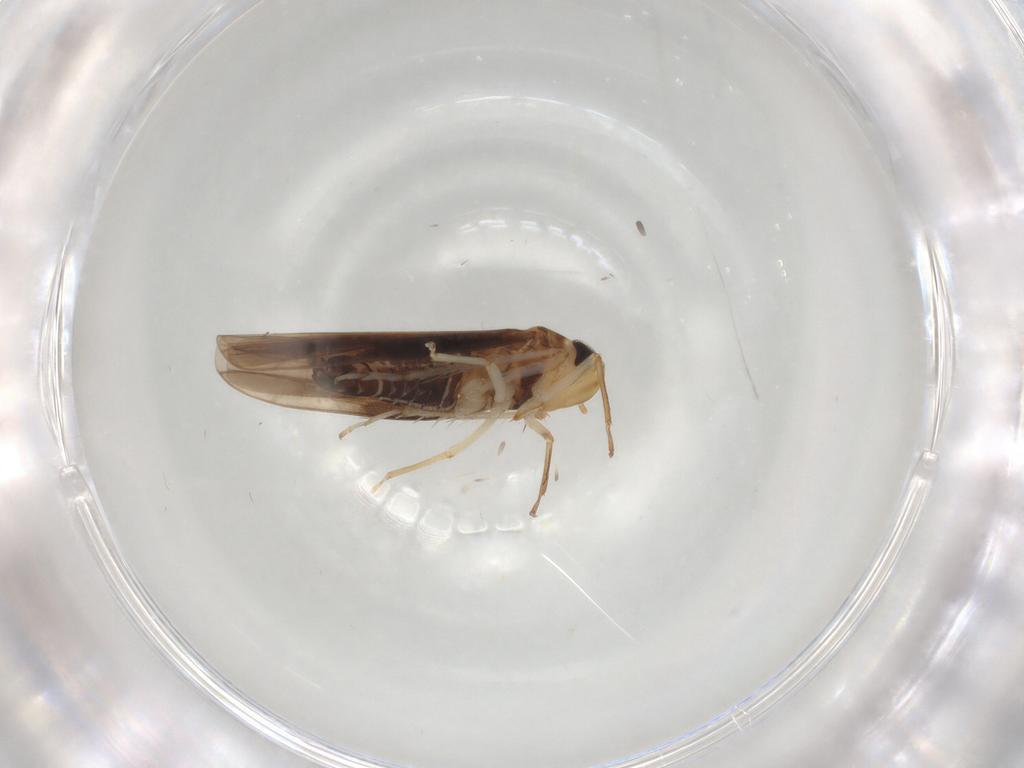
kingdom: Animalia
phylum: Arthropoda
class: Insecta
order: Hemiptera
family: Cicadellidae
